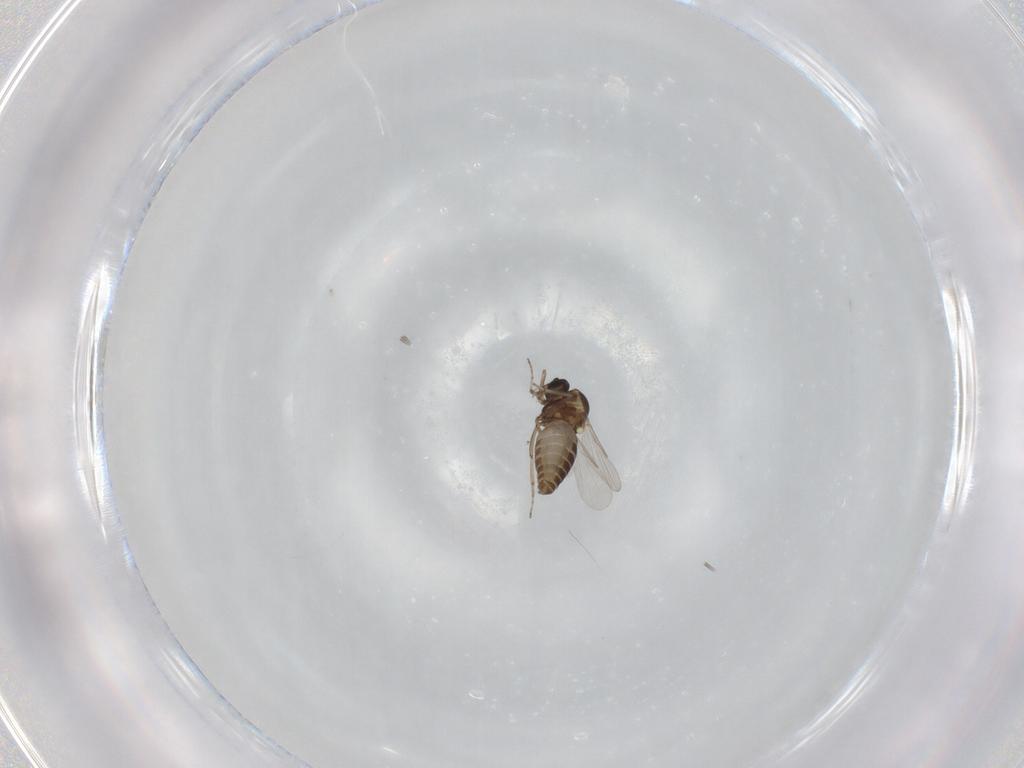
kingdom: Animalia
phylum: Arthropoda
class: Insecta
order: Diptera
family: Ceratopogonidae
